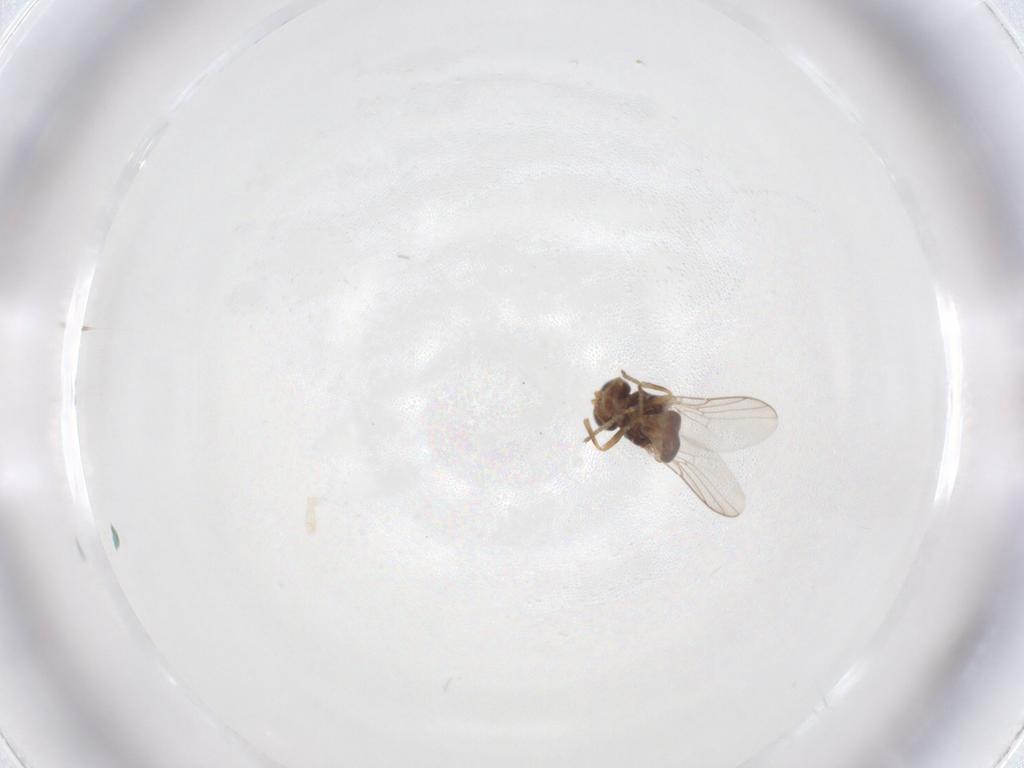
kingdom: Animalia
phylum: Arthropoda
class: Insecta
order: Diptera
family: Chloropidae
